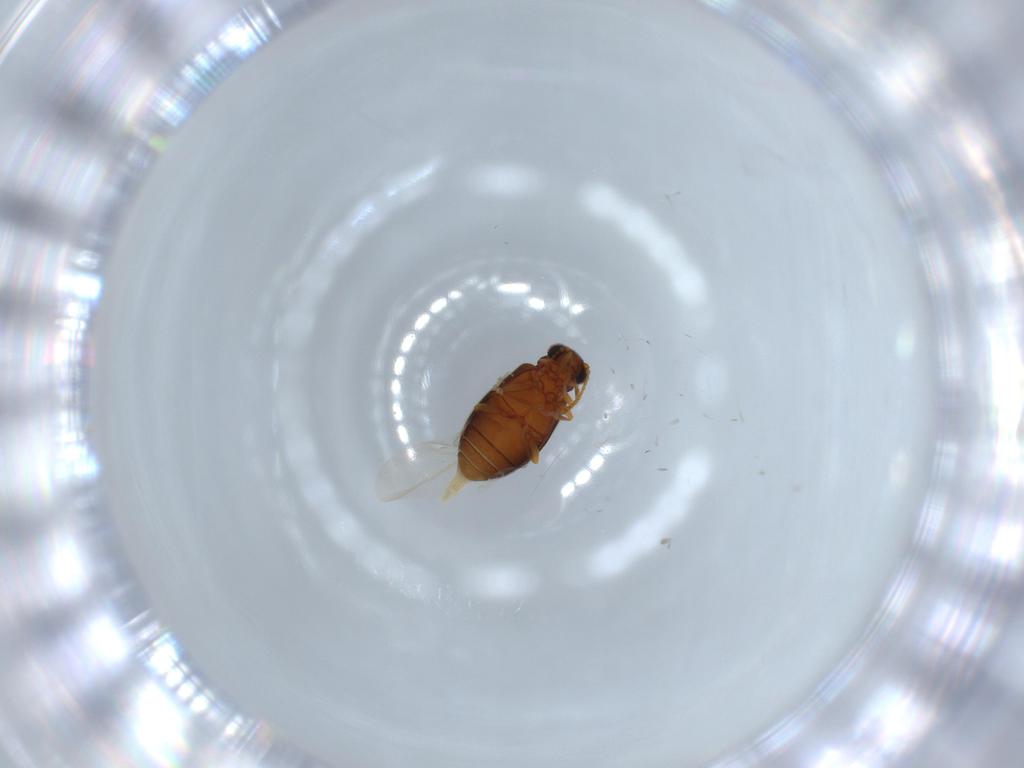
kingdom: Animalia
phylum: Arthropoda
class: Insecta
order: Coleoptera
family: Aderidae
